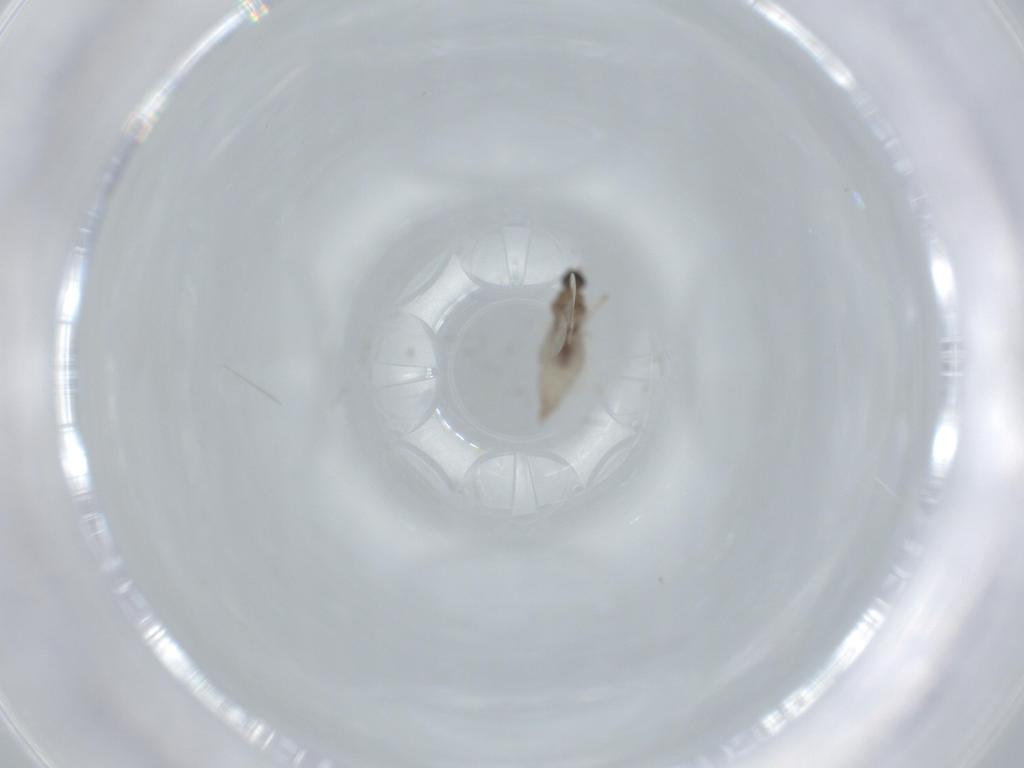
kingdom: Animalia
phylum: Arthropoda
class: Insecta
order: Diptera
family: Cecidomyiidae
